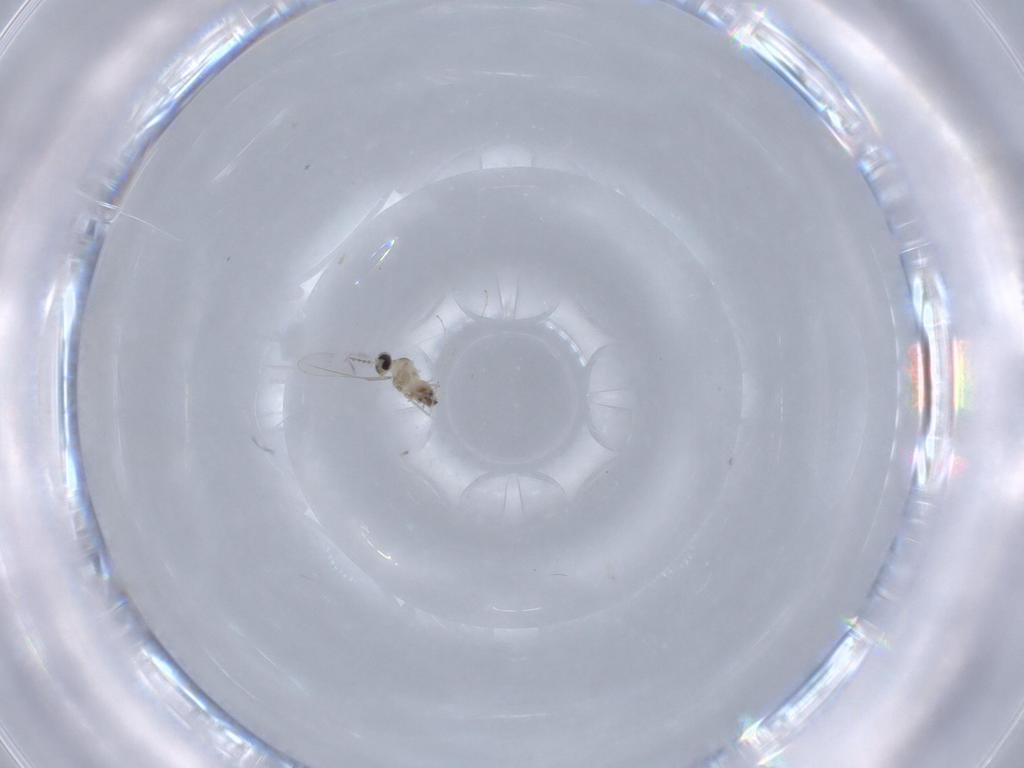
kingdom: Animalia
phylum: Arthropoda
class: Insecta
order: Diptera
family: Cecidomyiidae
